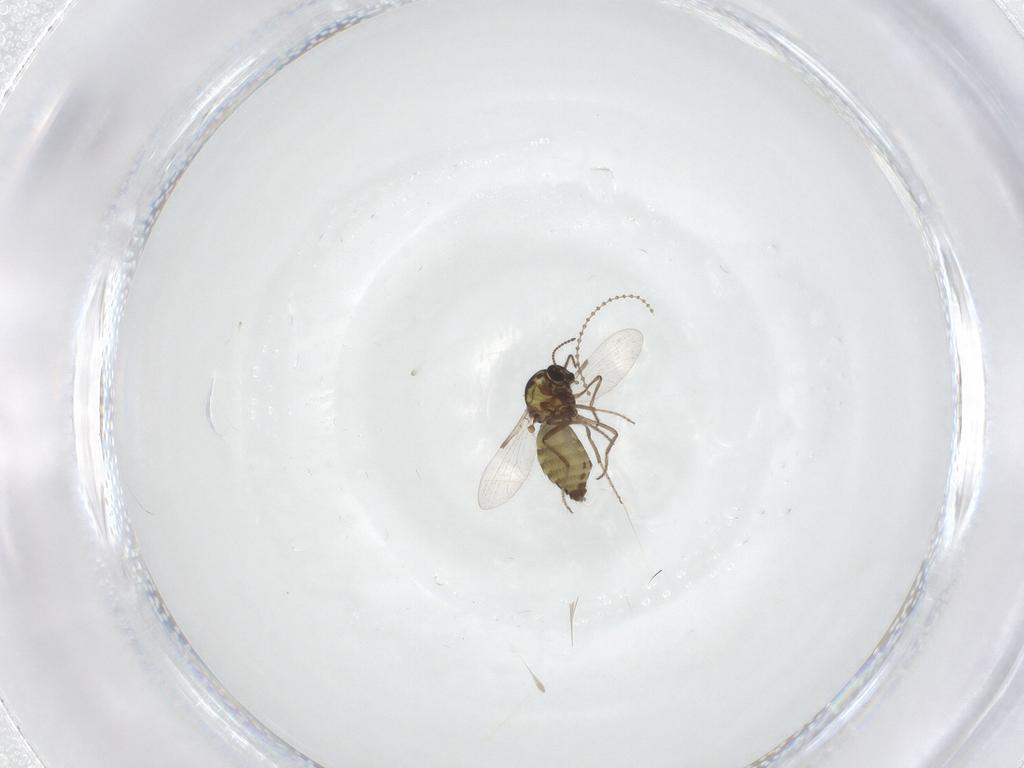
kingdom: Animalia
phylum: Arthropoda
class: Insecta
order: Diptera
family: Ceratopogonidae
